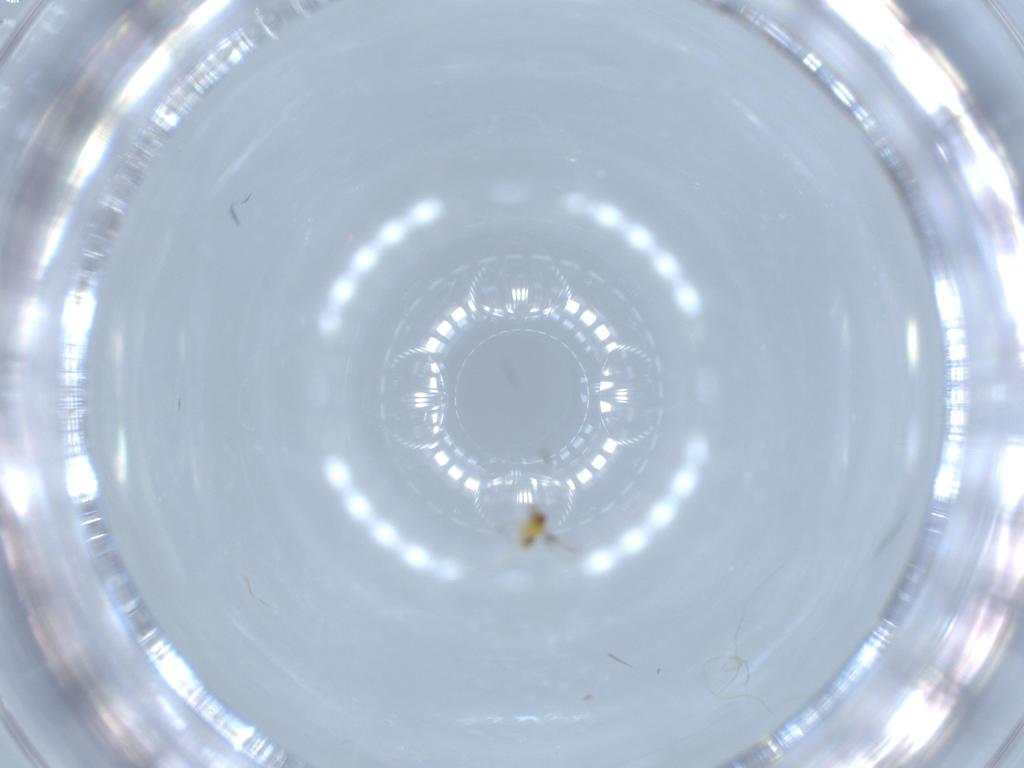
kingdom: Animalia
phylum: Arthropoda
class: Insecta
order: Hymenoptera
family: Trichogrammatidae
